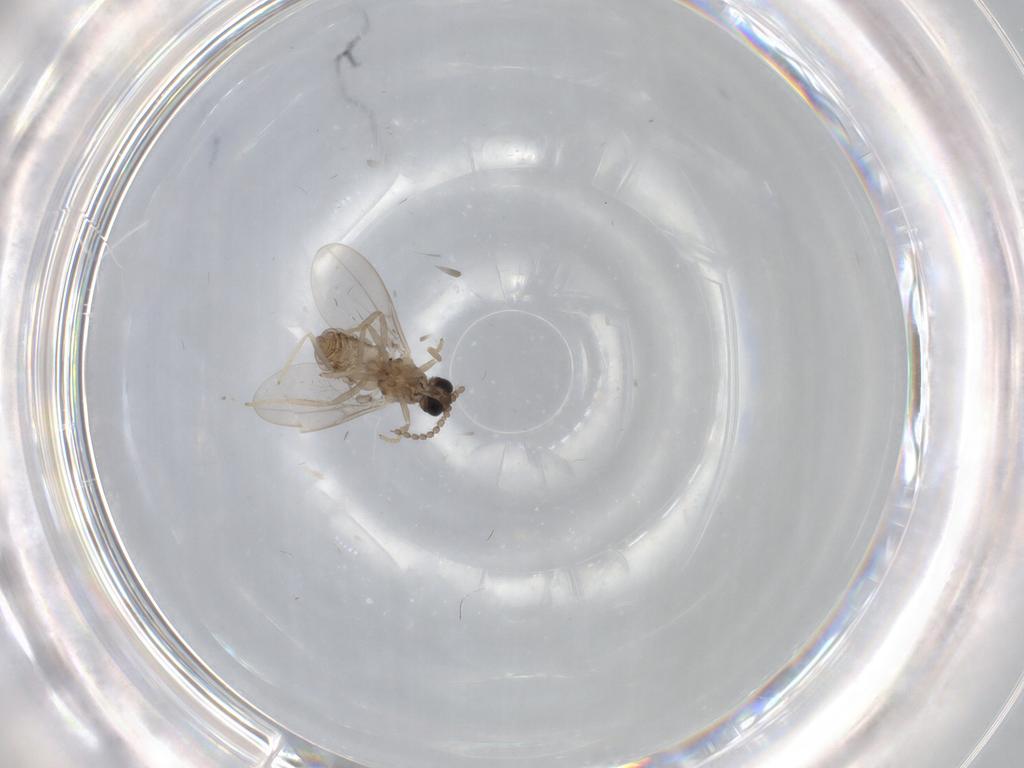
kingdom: Animalia
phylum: Arthropoda
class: Insecta
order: Diptera
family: Cecidomyiidae
